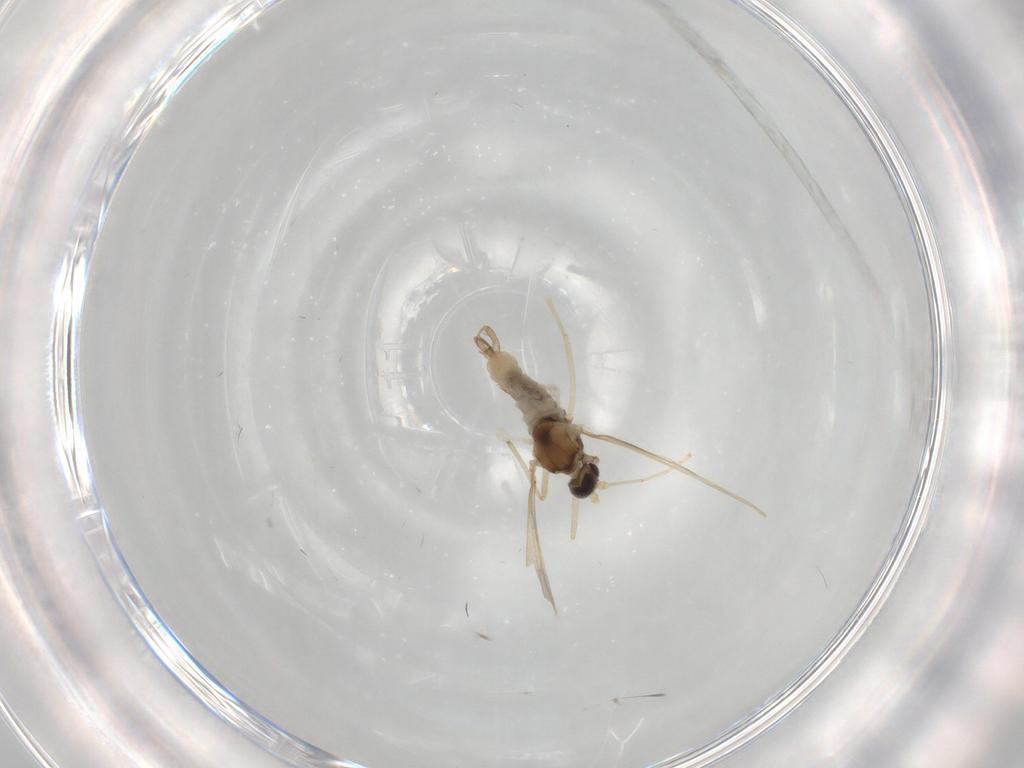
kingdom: Animalia
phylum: Arthropoda
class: Insecta
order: Diptera
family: Cecidomyiidae
